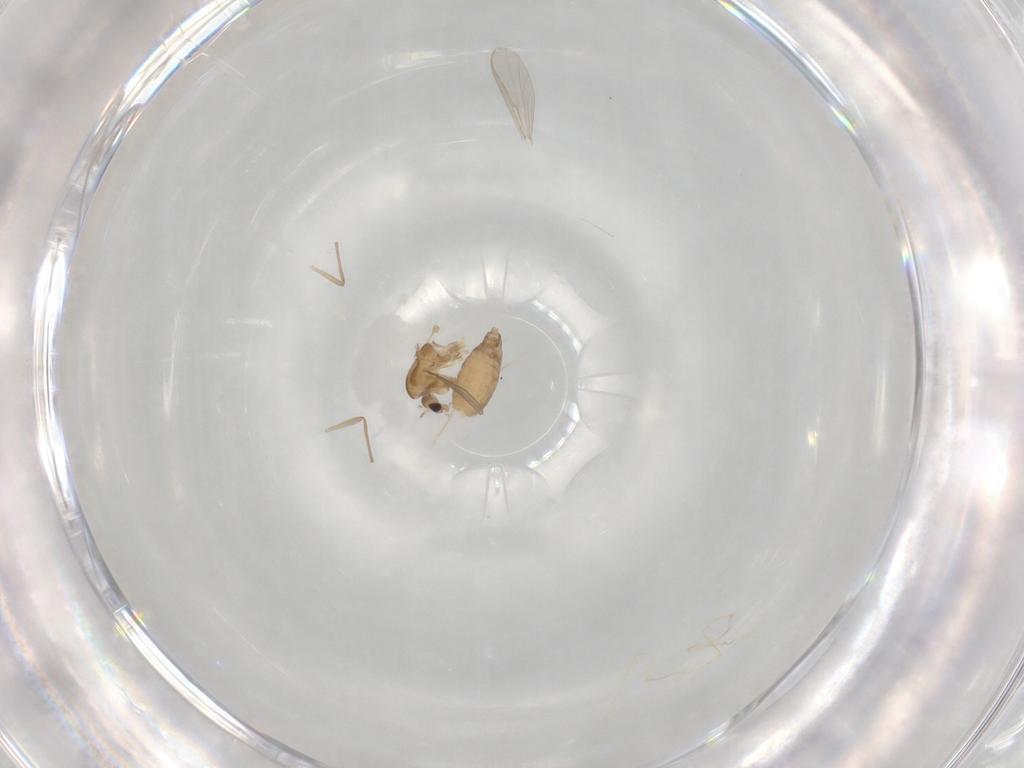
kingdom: Animalia
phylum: Arthropoda
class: Insecta
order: Diptera
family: Chironomidae
